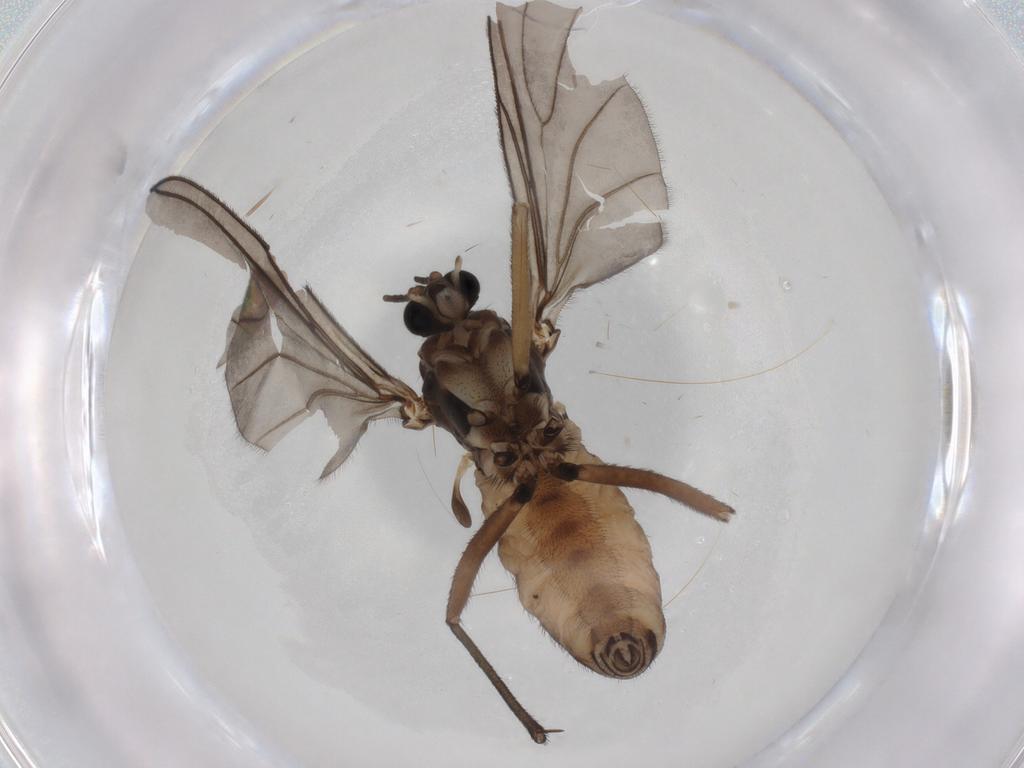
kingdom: Animalia
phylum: Arthropoda
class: Insecta
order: Diptera
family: Sciaridae
